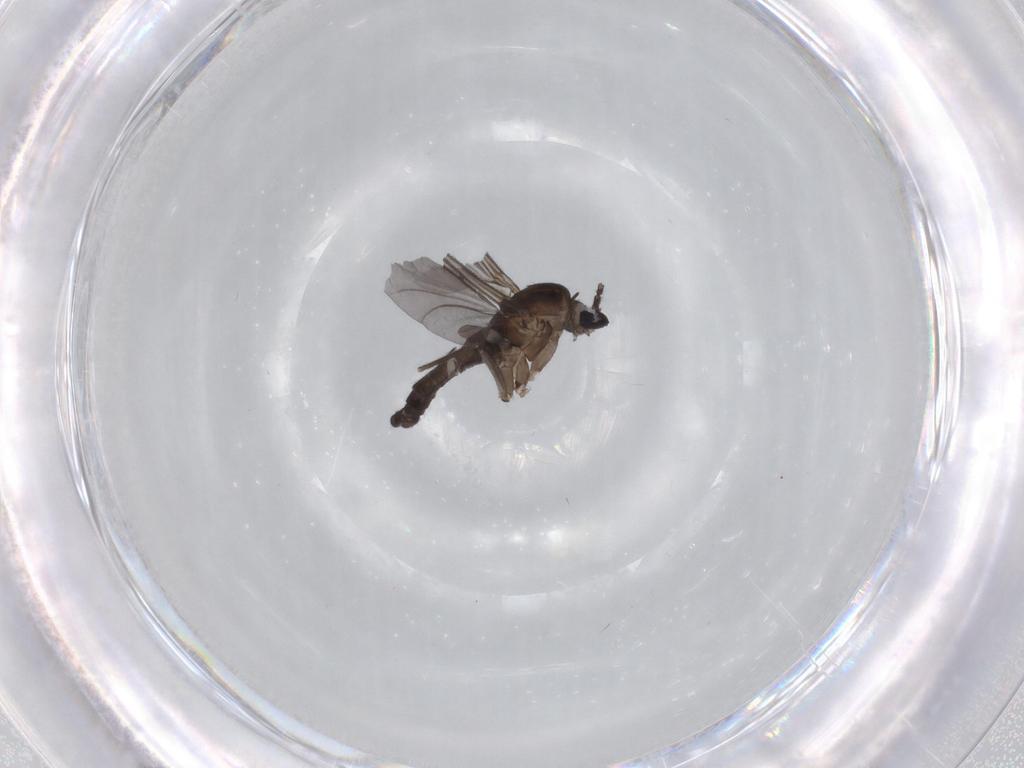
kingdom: Animalia
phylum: Arthropoda
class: Insecta
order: Diptera
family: Sciaridae
